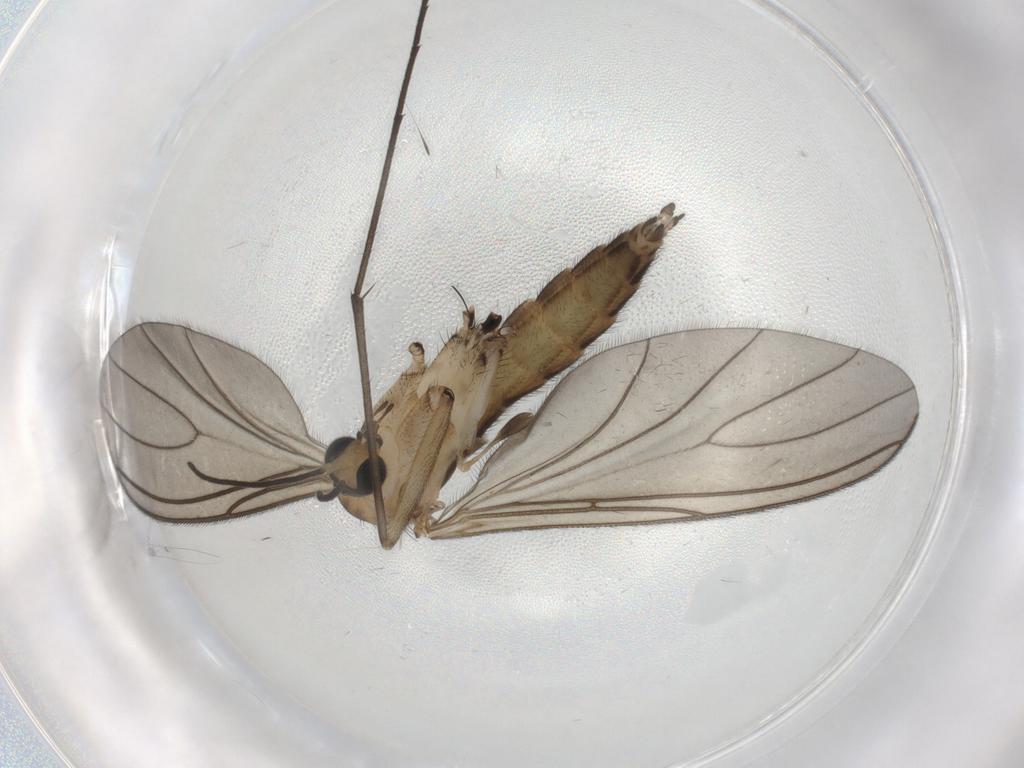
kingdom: Animalia
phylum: Arthropoda
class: Insecta
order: Diptera
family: Sciaridae
